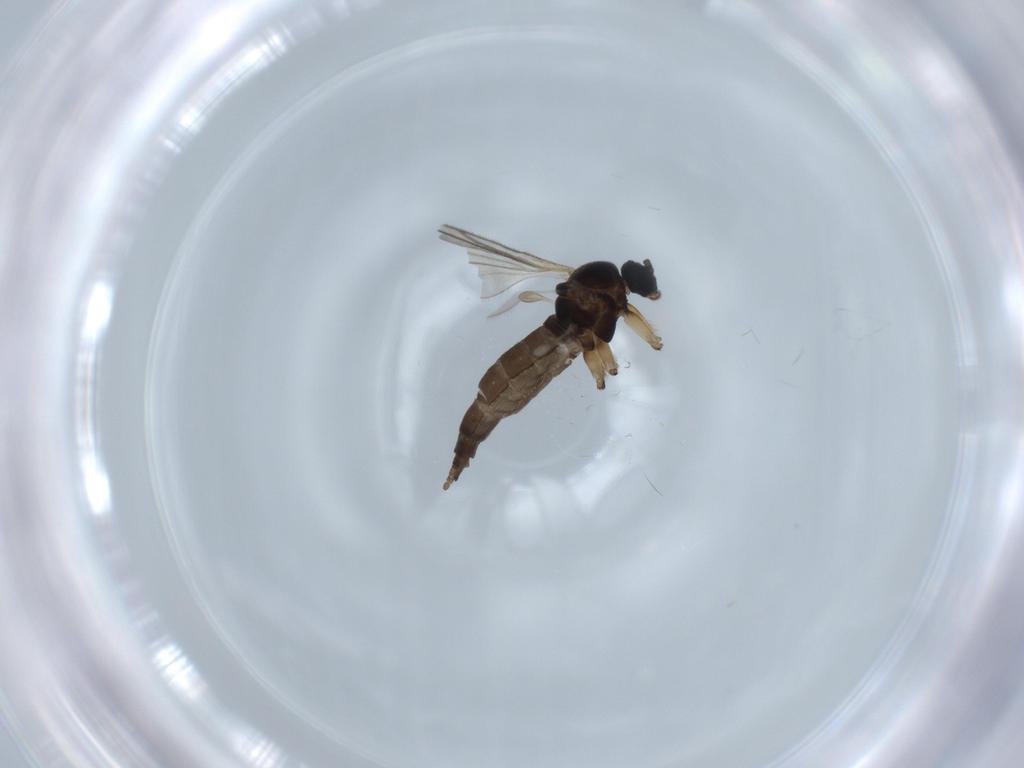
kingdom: Animalia
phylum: Arthropoda
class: Insecta
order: Diptera
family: Sciaridae
